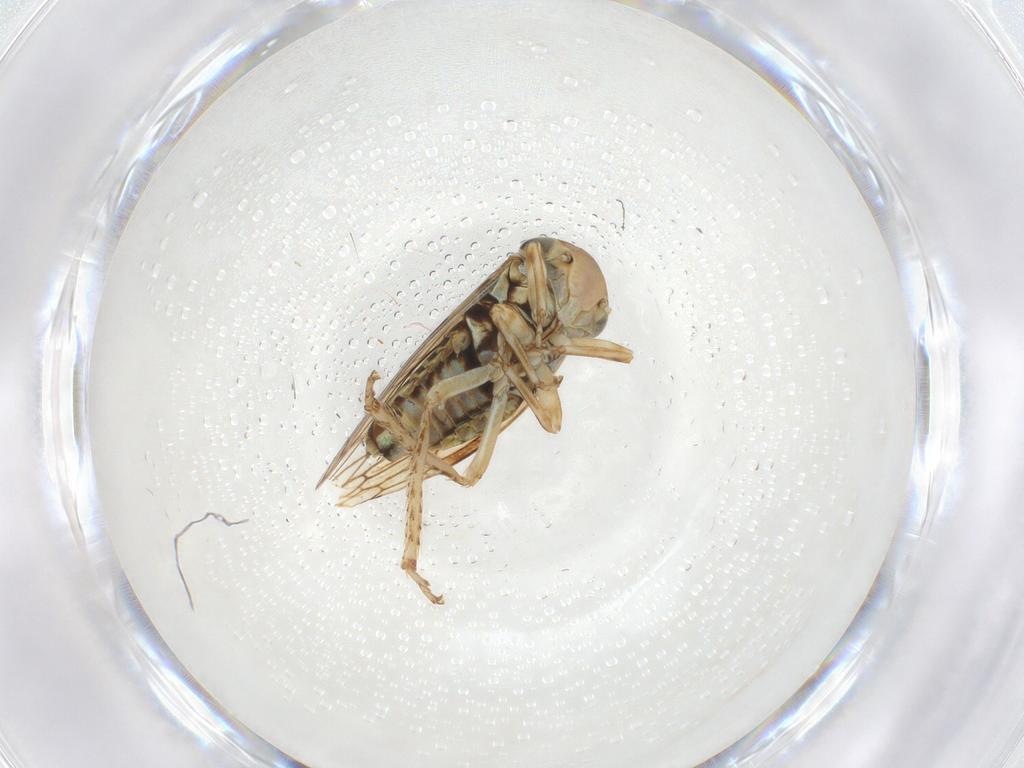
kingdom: Animalia
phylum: Arthropoda
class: Insecta
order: Hemiptera
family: Cicadellidae
